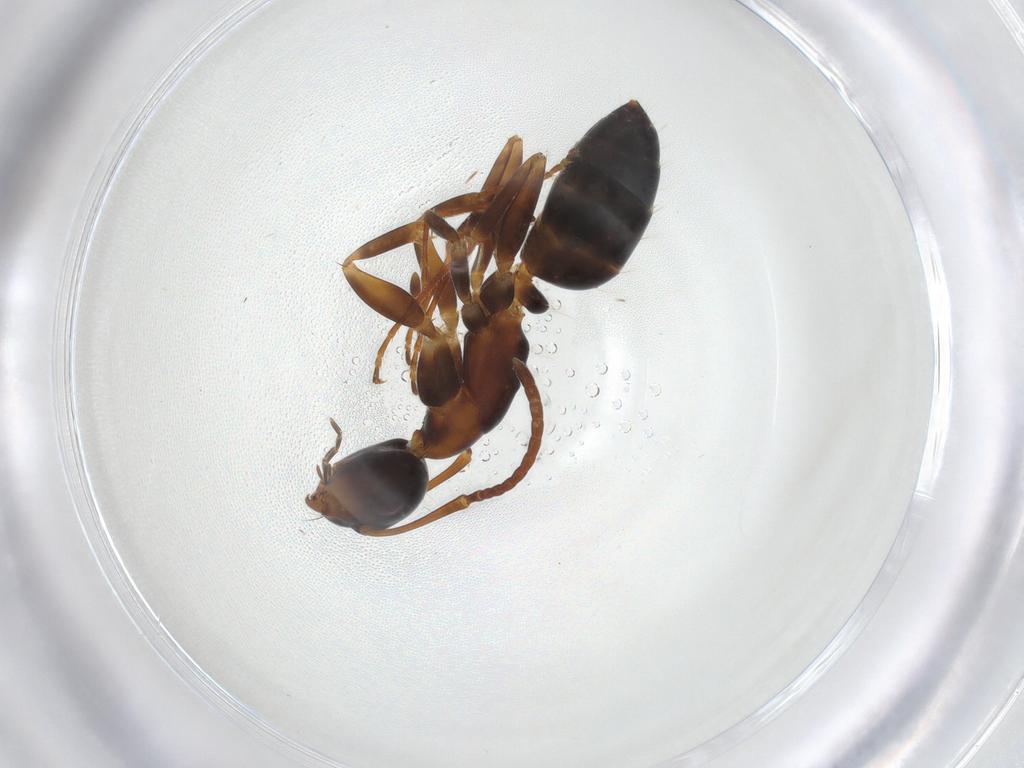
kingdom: Animalia
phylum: Arthropoda
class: Insecta
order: Hymenoptera
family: Formicidae
